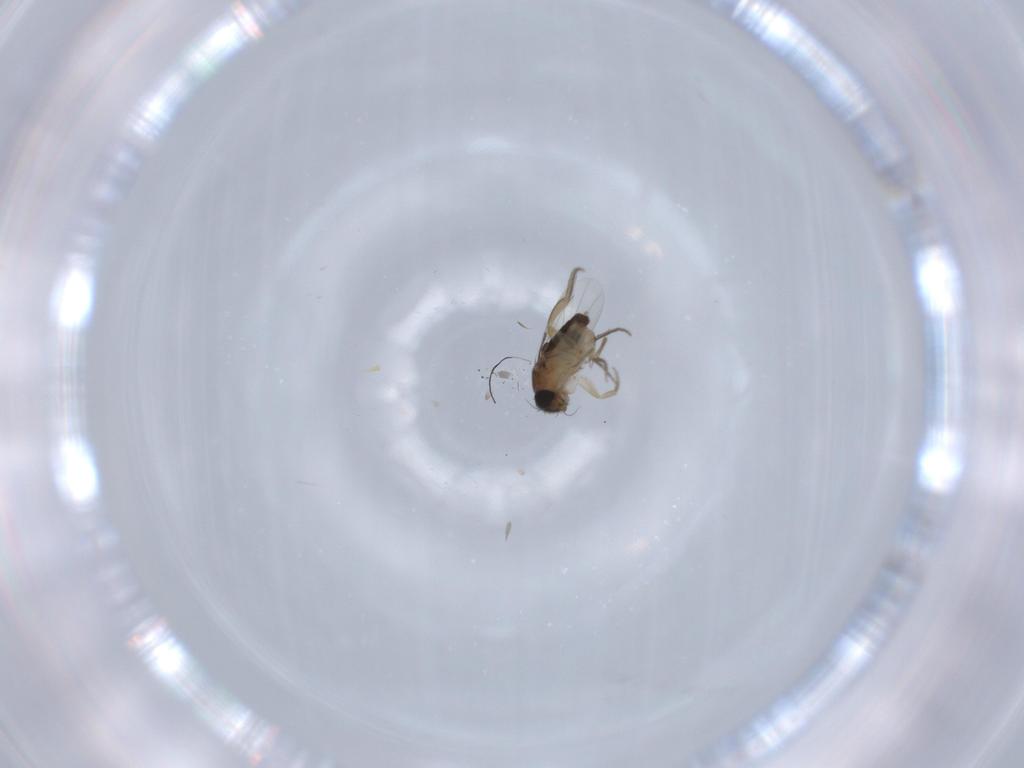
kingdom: Animalia
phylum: Arthropoda
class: Insecta
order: Diptera
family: Phoridae
